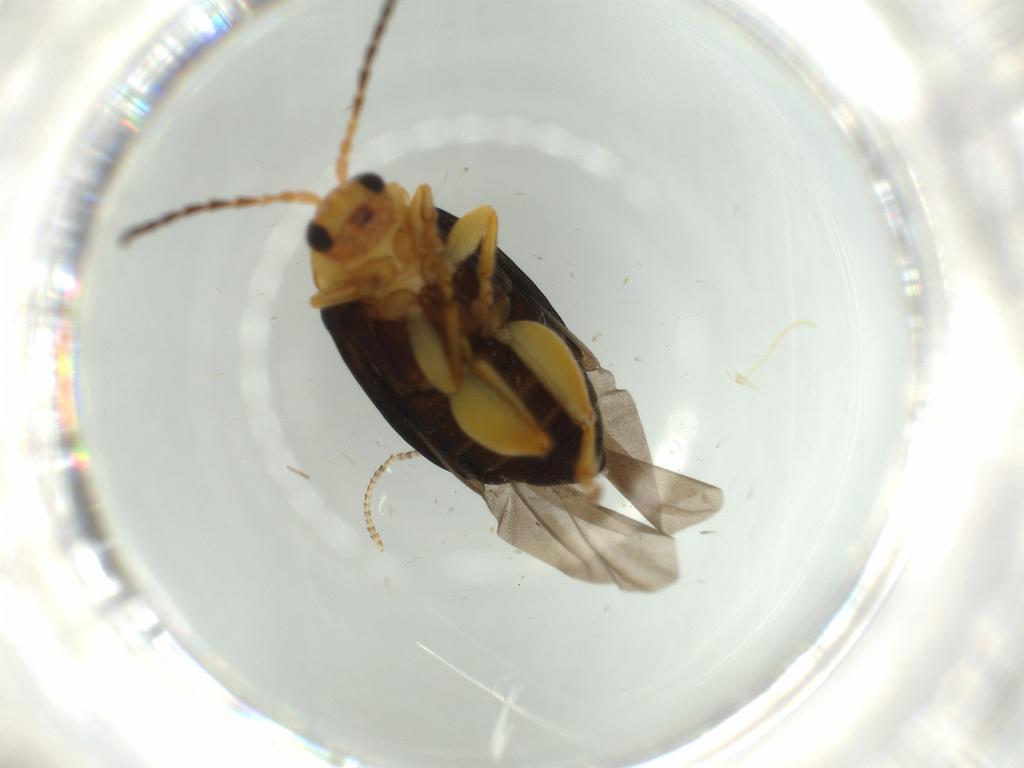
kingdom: Animalia
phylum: Arthropoda
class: Insecta
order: Coleoptera
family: Chrysomelidae
